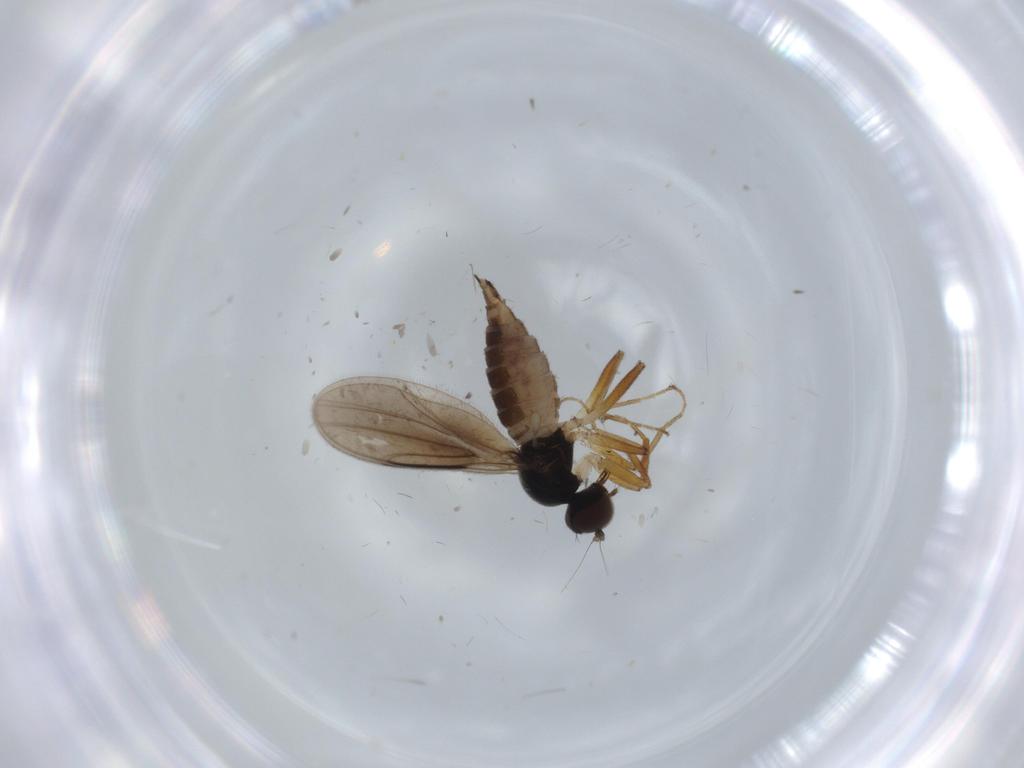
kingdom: Animalia
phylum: Arthropoda
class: Insecta
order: Diptera
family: Hybotidae
